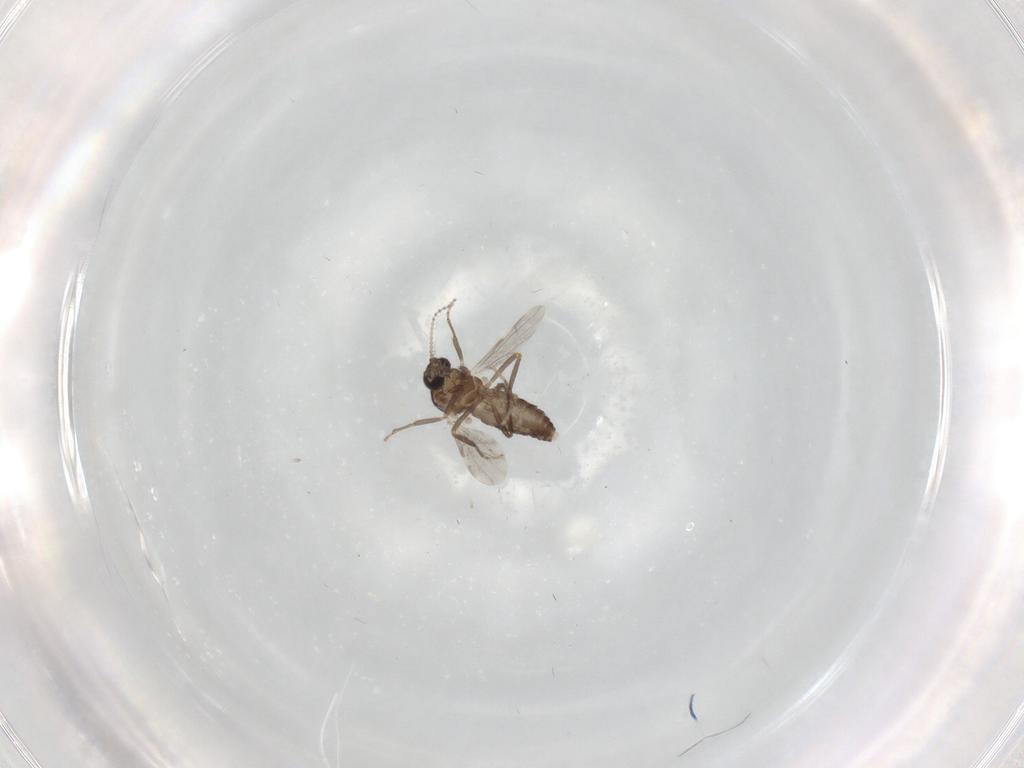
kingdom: Animalia
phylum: Arthropoda
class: Insecta
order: Diptera
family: Ceratopogonidae
